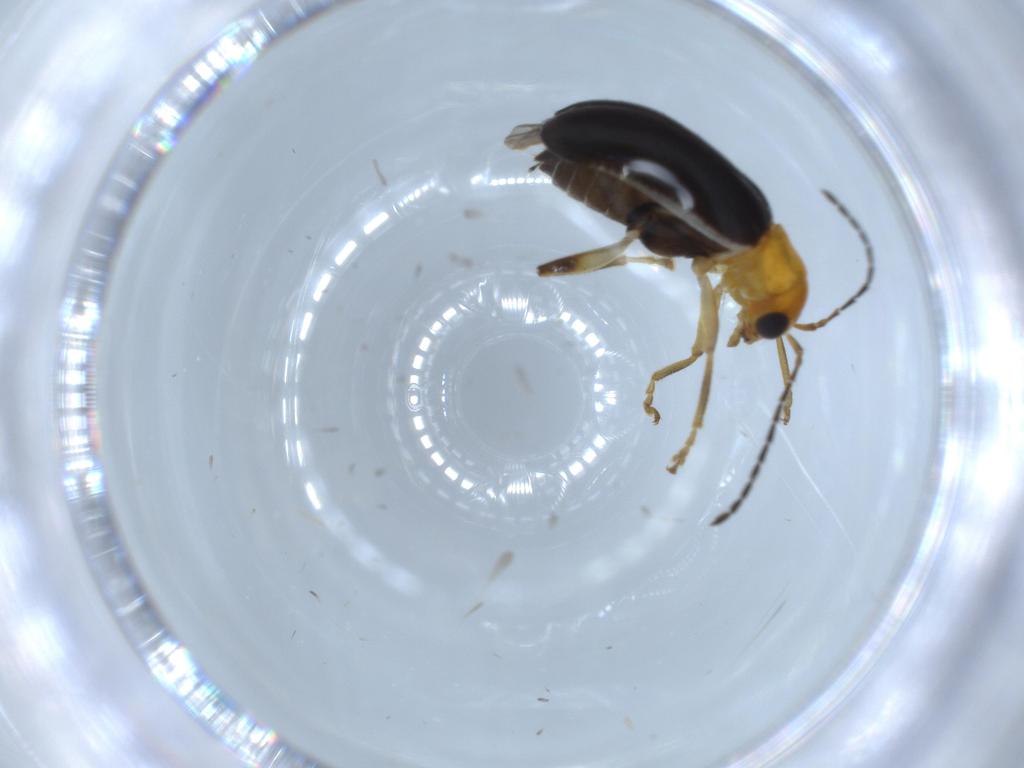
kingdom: Animalia
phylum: Arthropoda
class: Insecta
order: Coleoptera
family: Chrysomelidae
